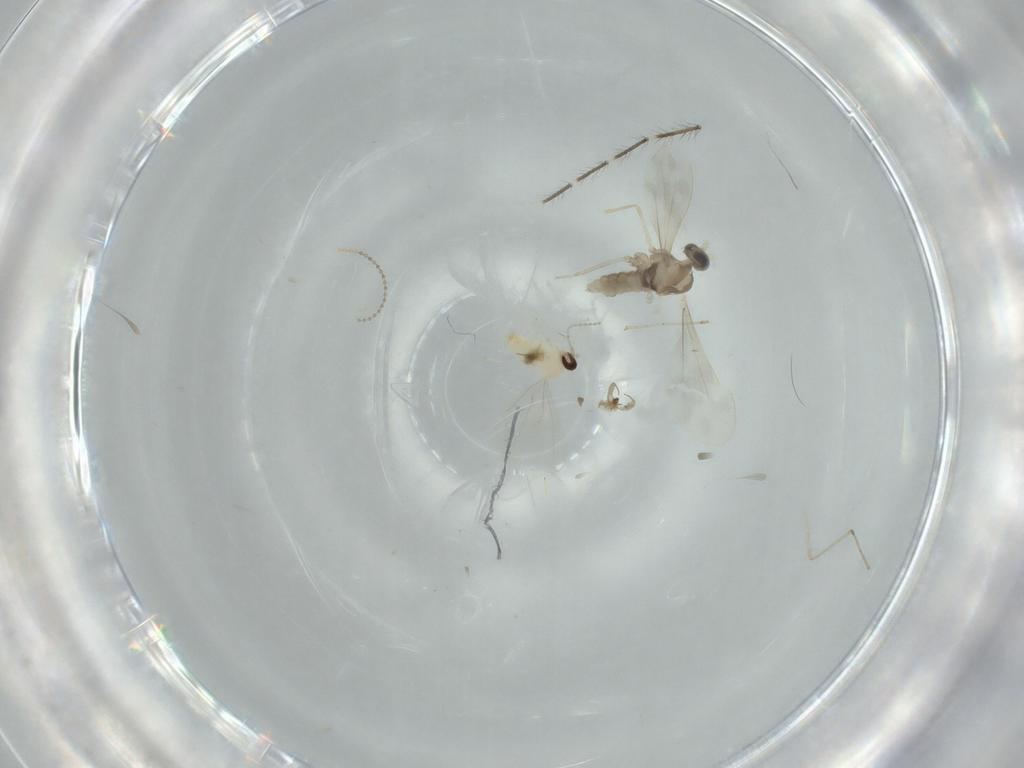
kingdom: Animalia
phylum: Arthropoda
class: Insecta
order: Diptera
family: Cecidomyiidae
